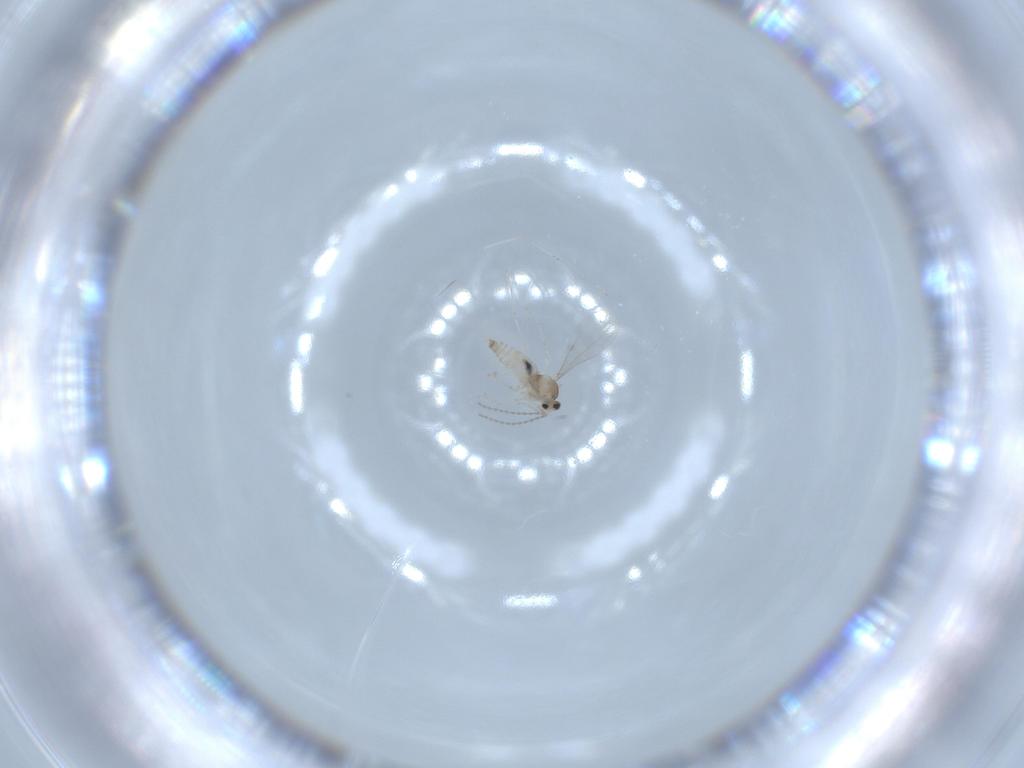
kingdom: Animalia
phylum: Arthropoda
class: Insecta
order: Diptera
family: Cecidomyiidae
